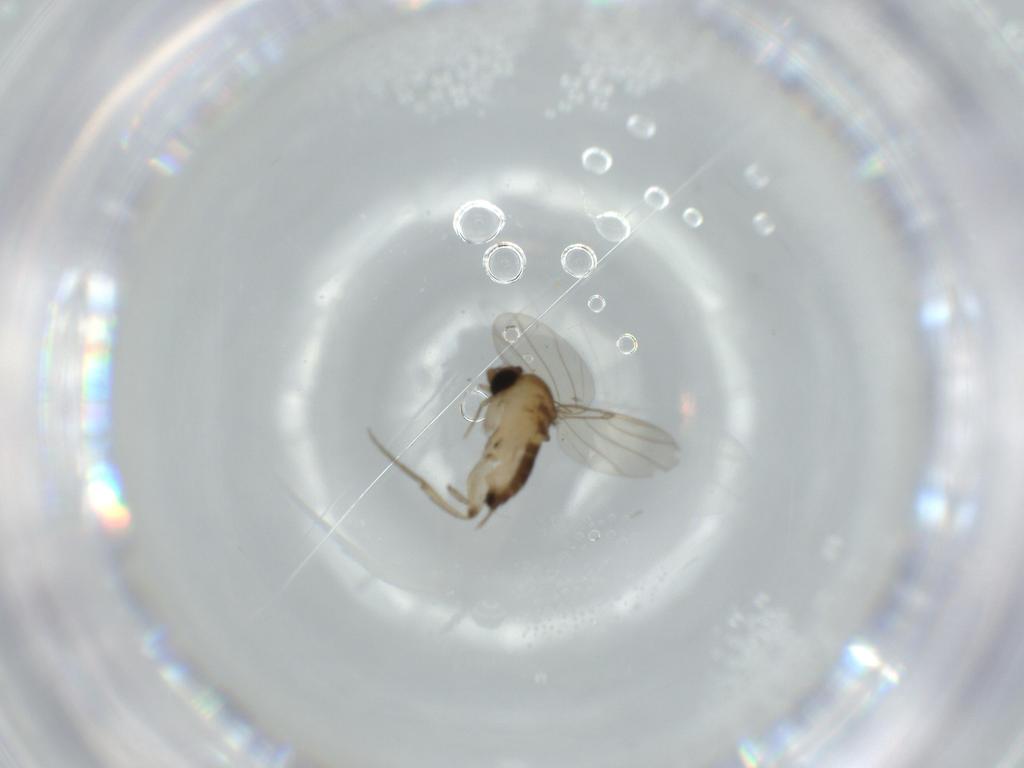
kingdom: Animalia
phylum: Arthropoda
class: Insecta
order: Diptera
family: Phoridae
